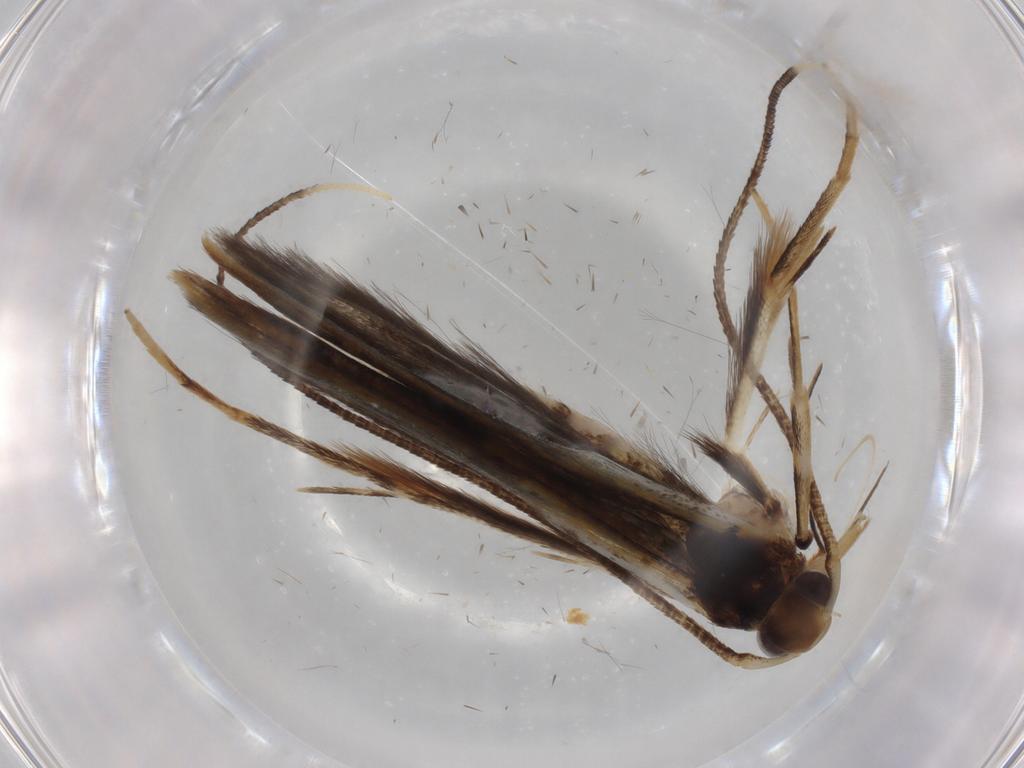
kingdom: Animalia
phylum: Arthropoda
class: Insecta
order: Lepidoptera
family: Gracillariidae
